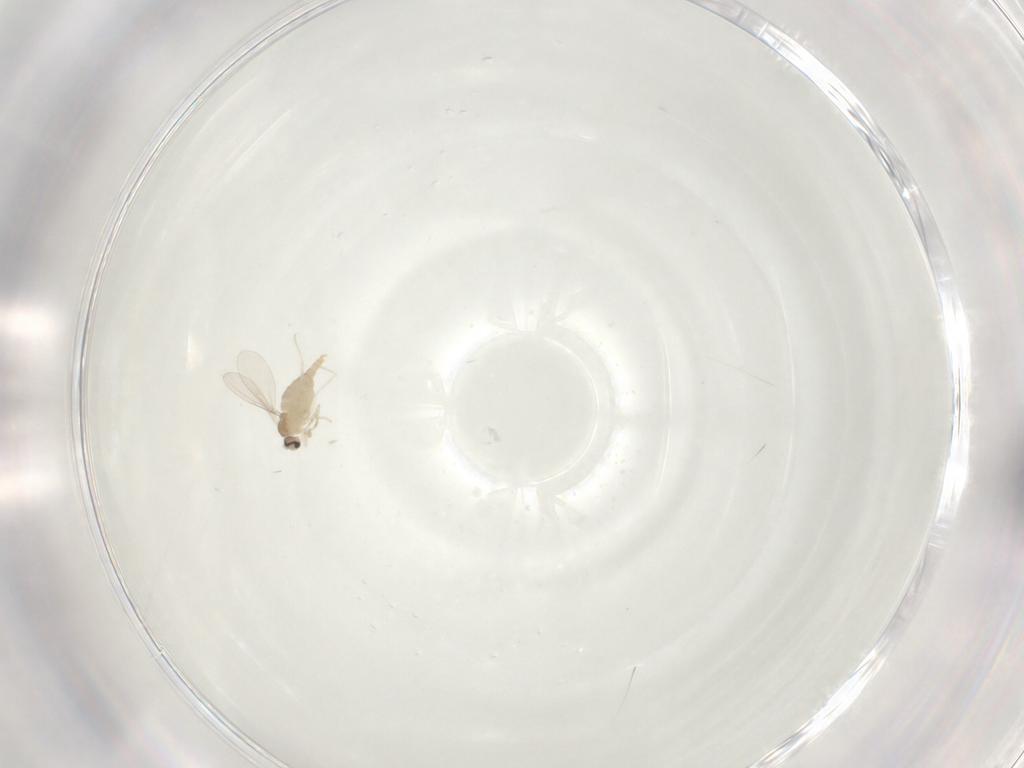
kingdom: Animalia
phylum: Arthropoda
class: Insecta
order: Diptera
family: Cecidomyiidae
